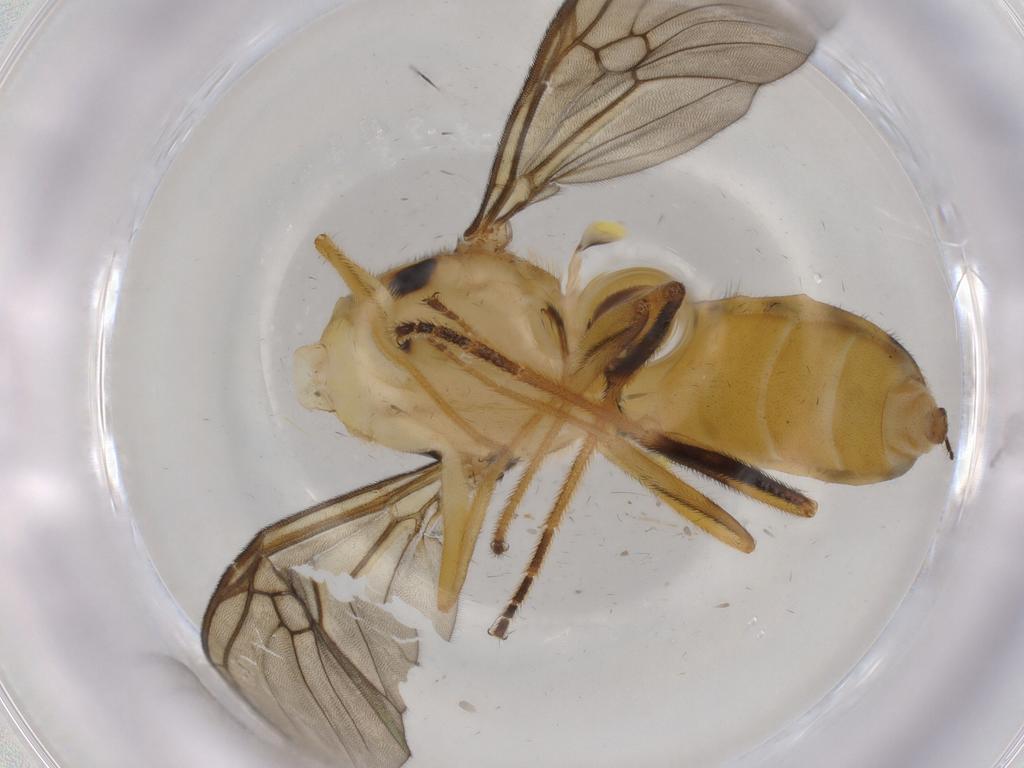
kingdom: Animalia
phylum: Arthropoda
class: Insecta
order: Diptera
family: Psychodidae
